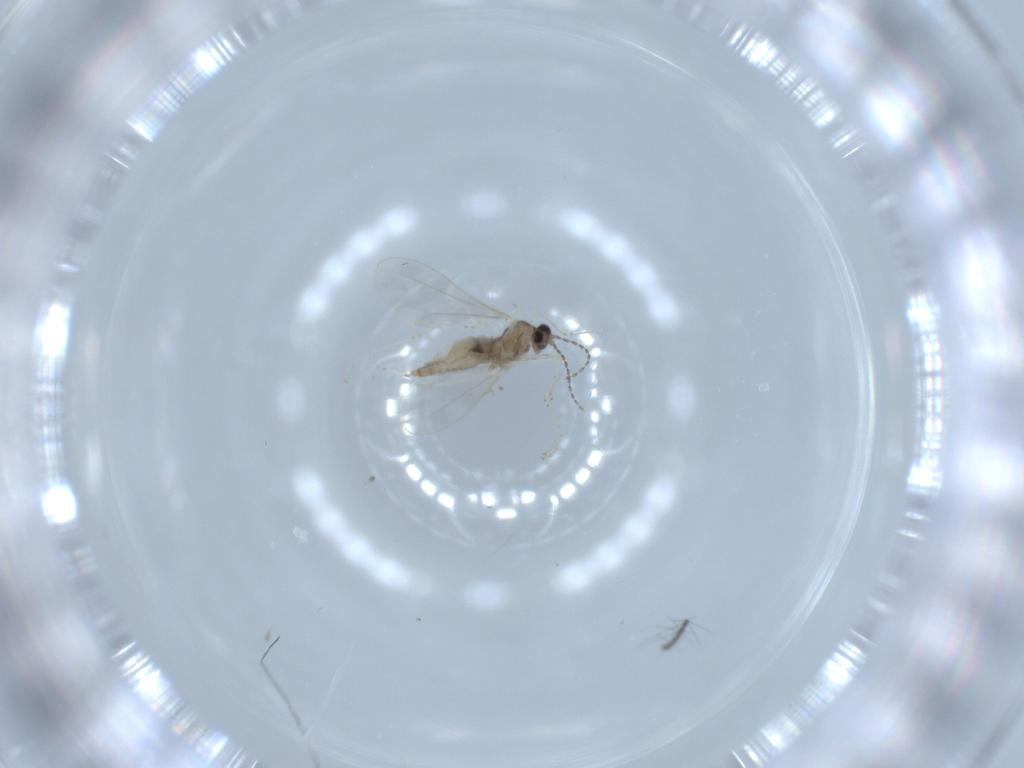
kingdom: Animalia
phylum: Arthropoda
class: Insecta
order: Diptera
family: Cecidomyiidae
